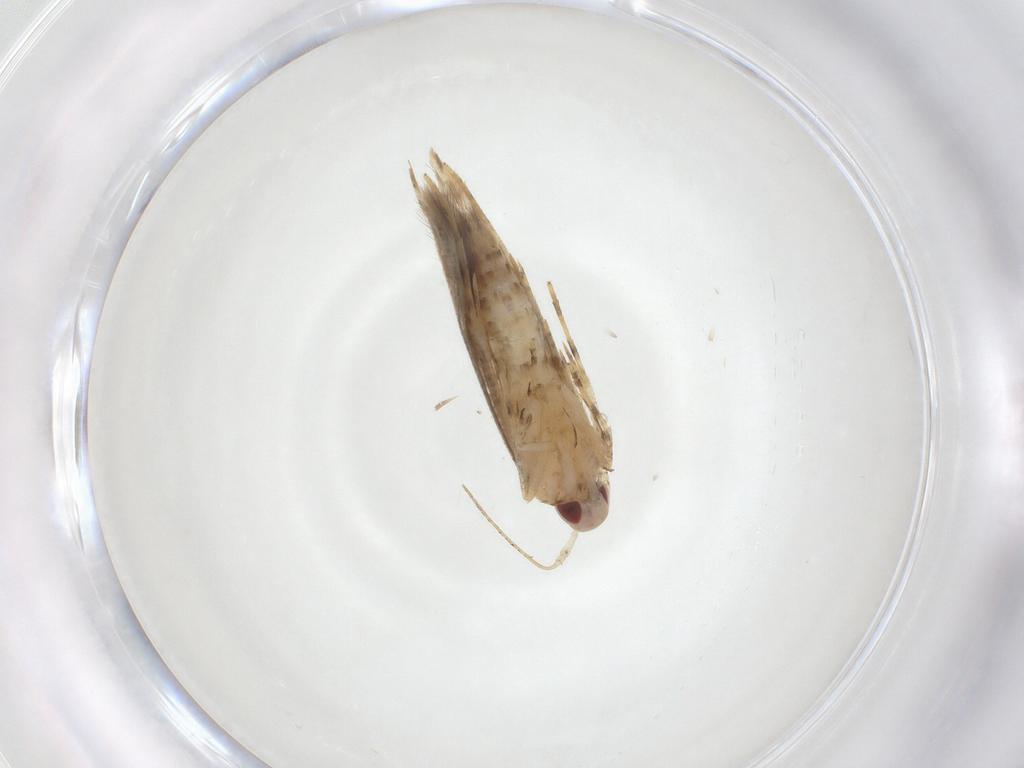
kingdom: Animalia
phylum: Arthropoda
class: Insecta
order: Lepidoptera
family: Cosmopterigidae
